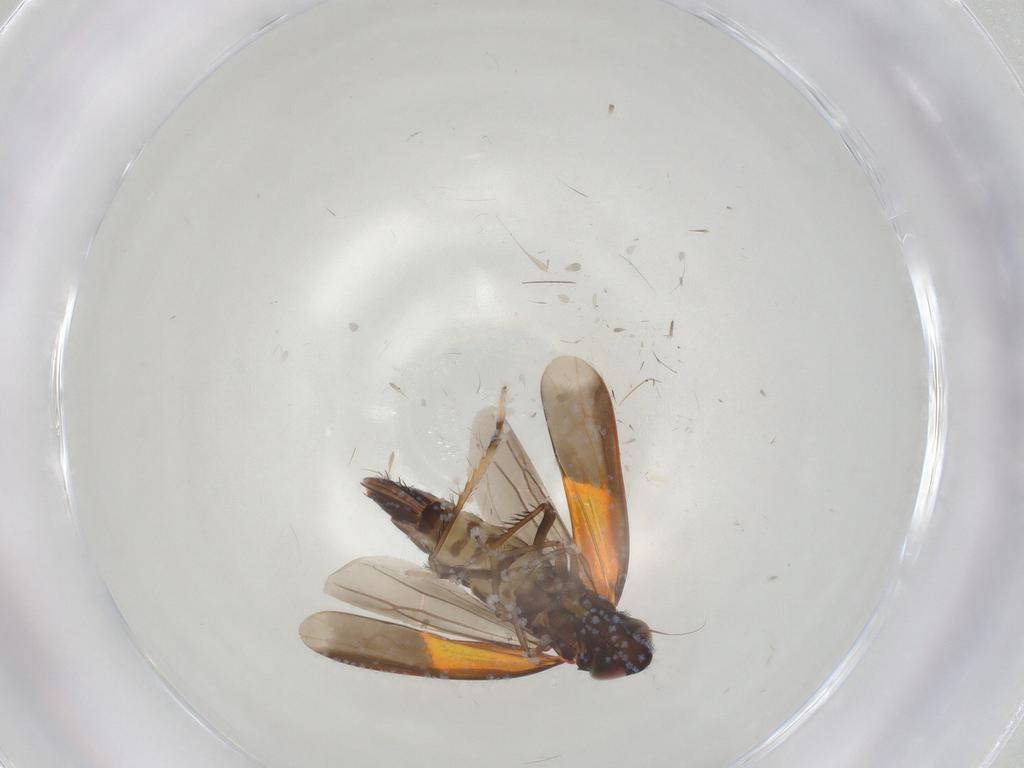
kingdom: Animalia
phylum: Arthropoda
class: Insecta
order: Hemiptera
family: Cicadellidae
